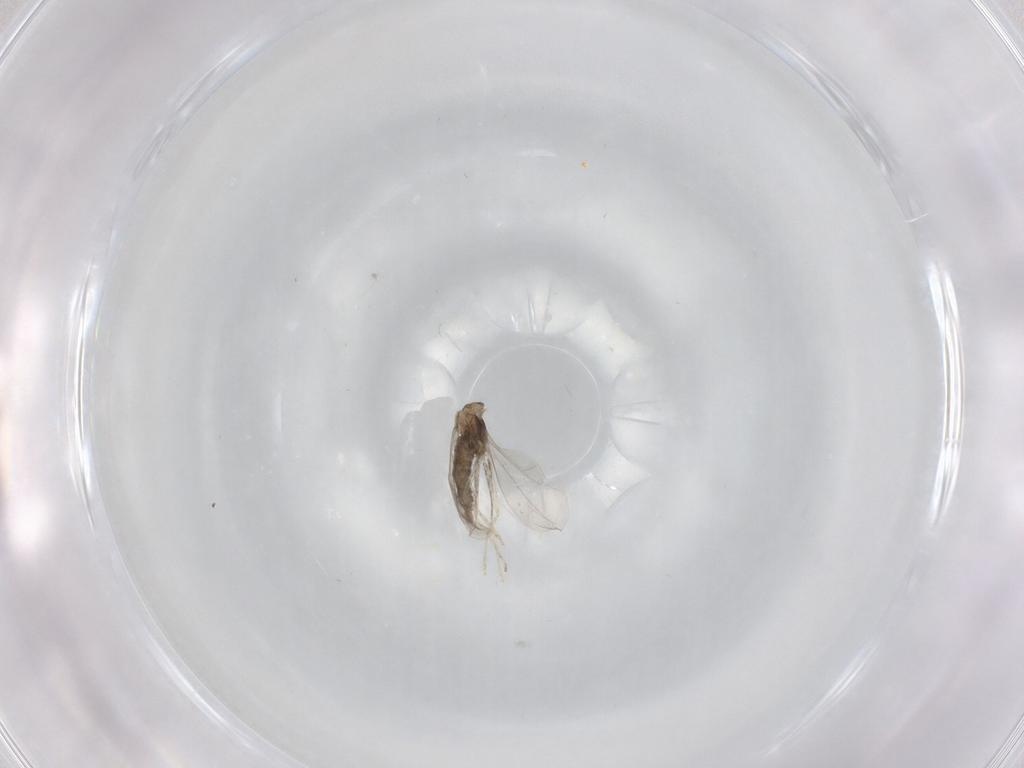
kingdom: Animalia
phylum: Arthropoda
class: Insecta
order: Diptera
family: Cecidomyiidae
